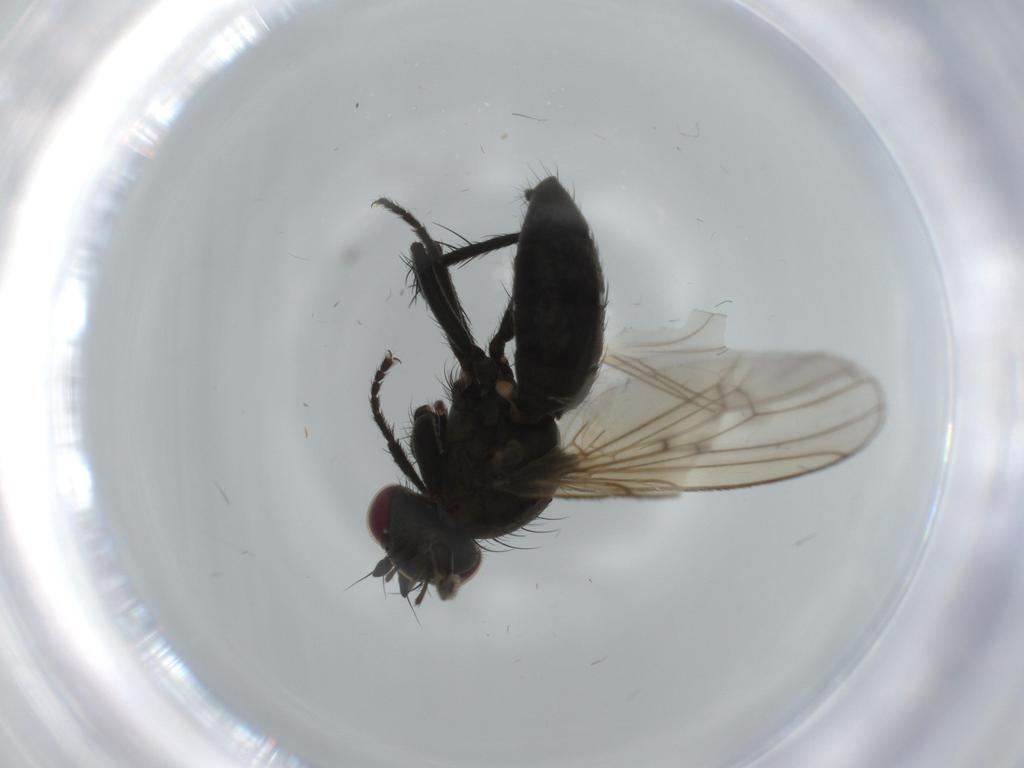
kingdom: Animalia
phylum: Arthropoda
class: Insecta
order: Diptera
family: Cecidomyiidae
